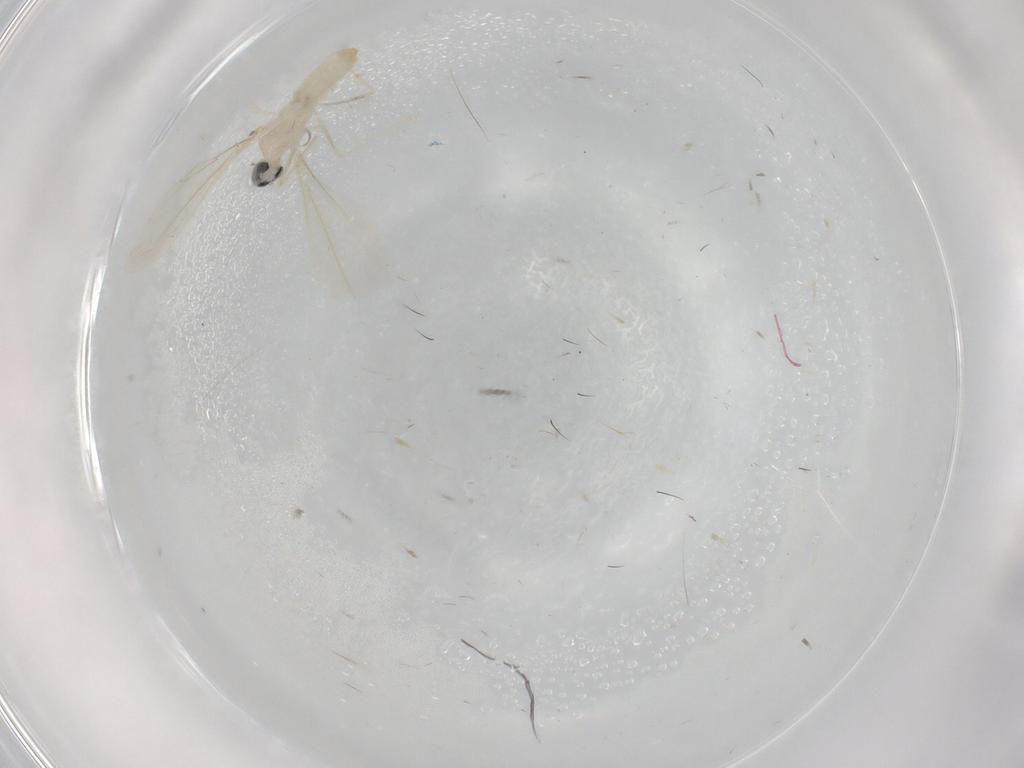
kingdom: Animalia
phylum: Arthropoda
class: Insecta
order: Diptera
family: Cecidomyiidae
